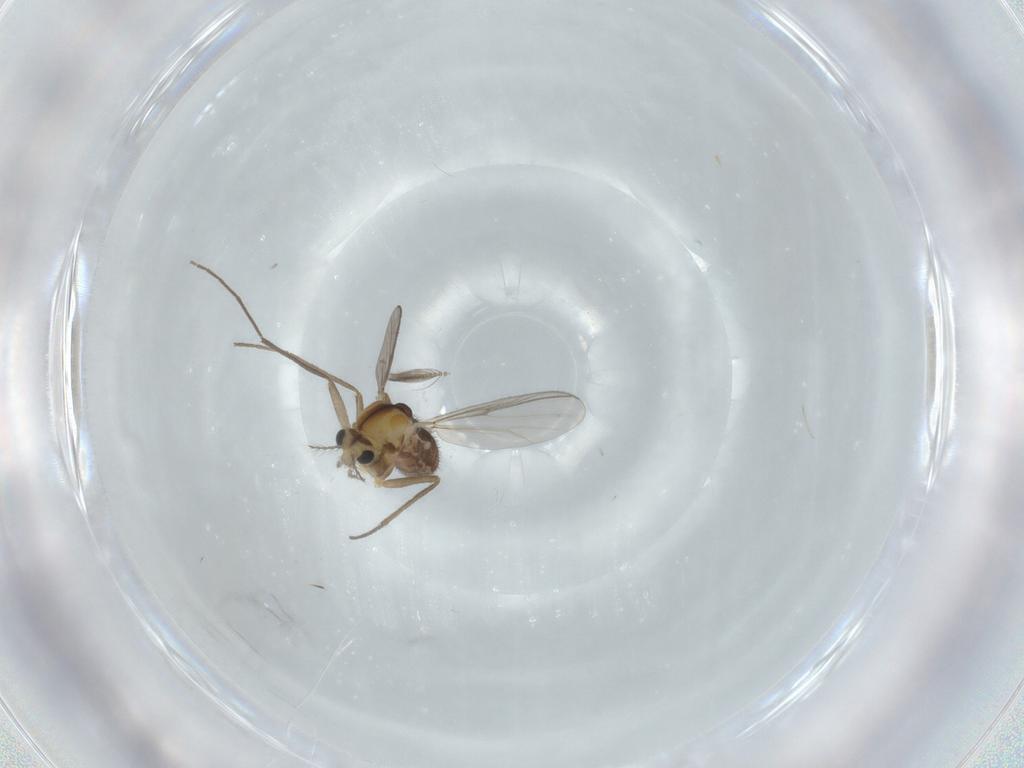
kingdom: Animalia
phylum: Arthropoda
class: Insecta
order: Diptera
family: Chironomidae
